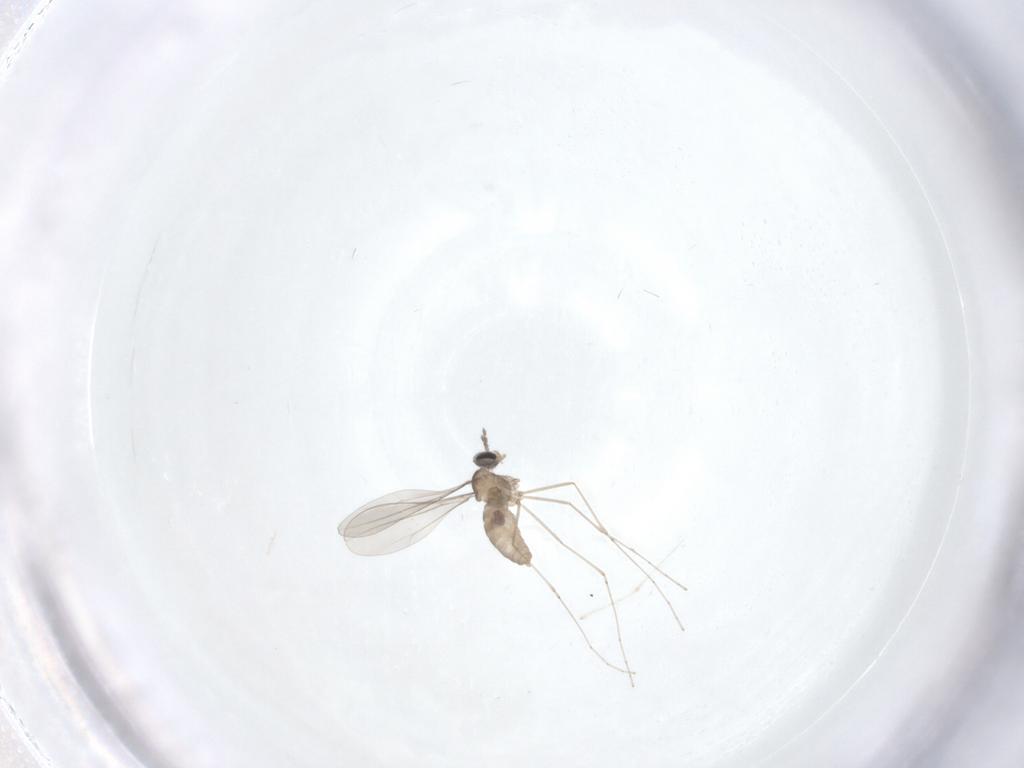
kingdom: Animalia
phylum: Arthropoda
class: Insecta
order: Diptera
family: Cecidomyiidae
